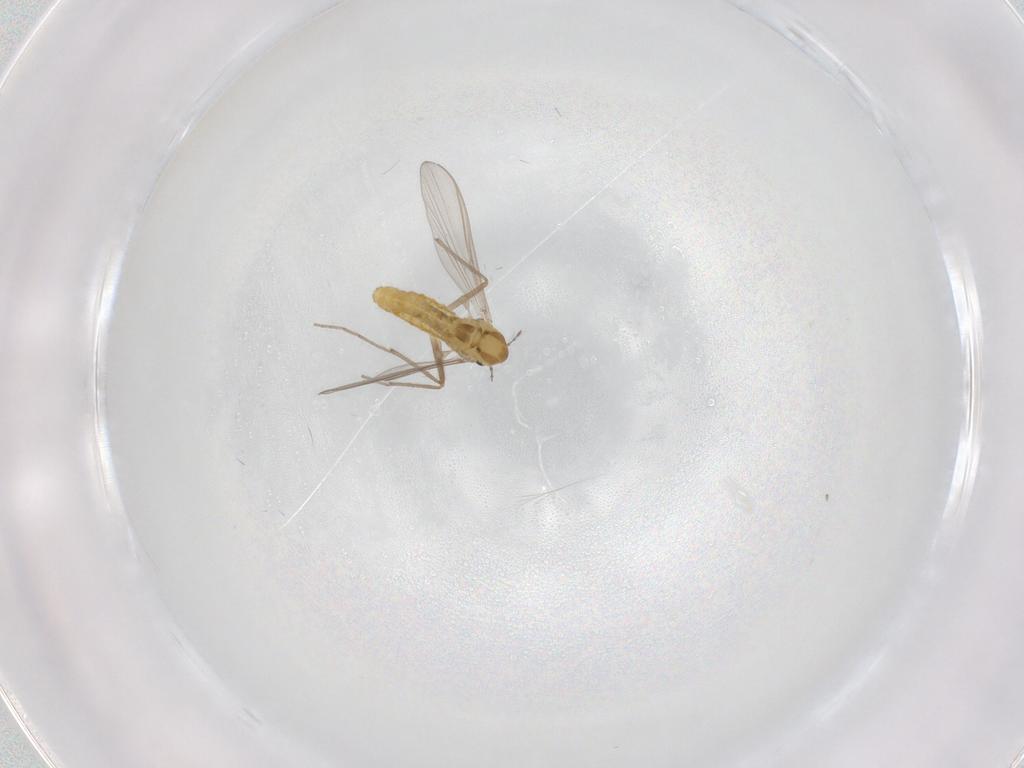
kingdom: Animalia
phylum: Arthropoda
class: Insecta
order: Diptera
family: Chironomidae
